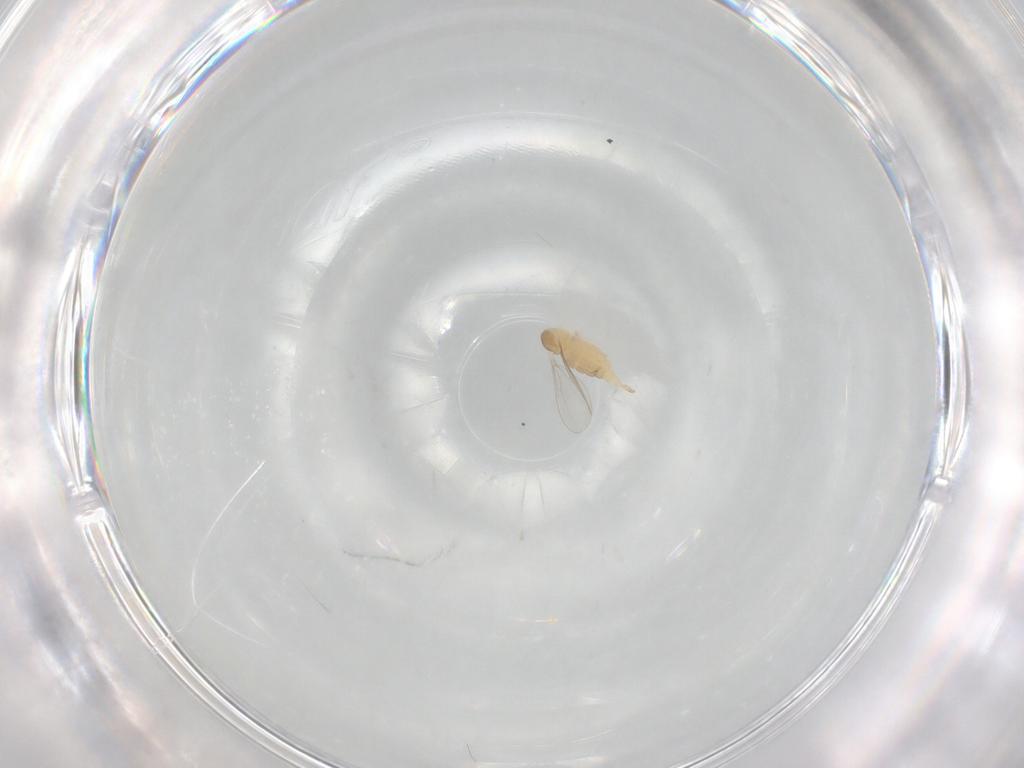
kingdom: Animalia
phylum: Arthropoda
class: Insecta
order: Diptera
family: Cecidomyiidae
